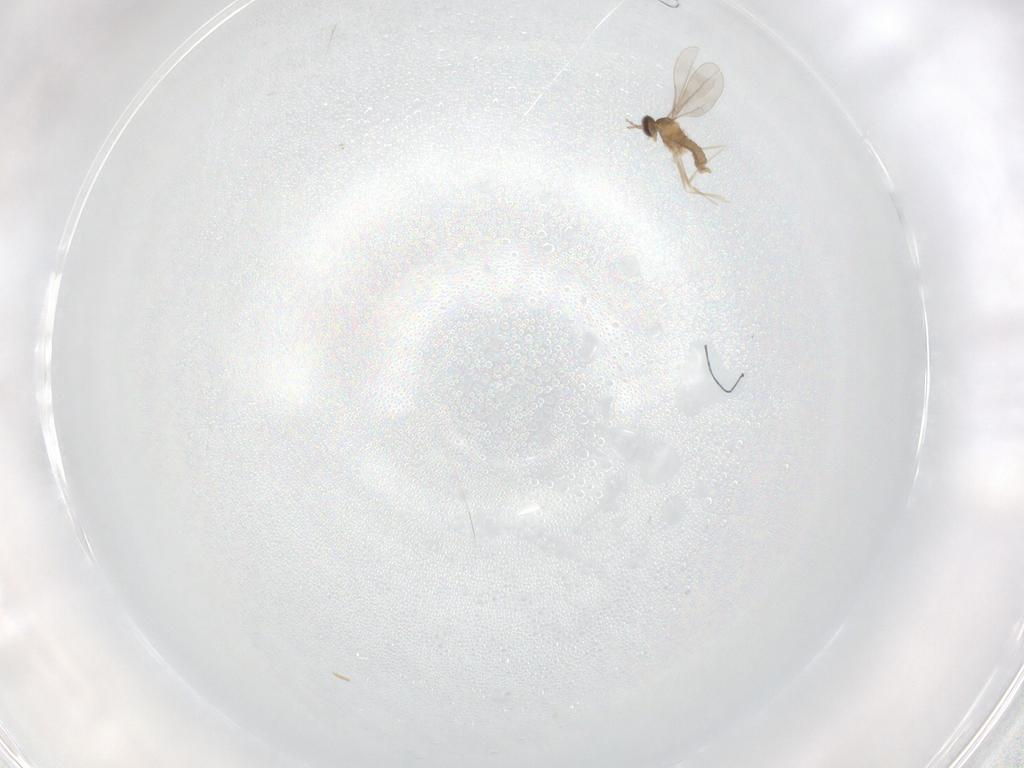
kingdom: Animalia
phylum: Arthropoda
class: Insecta
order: Diptera
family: Cecidomyiidae
